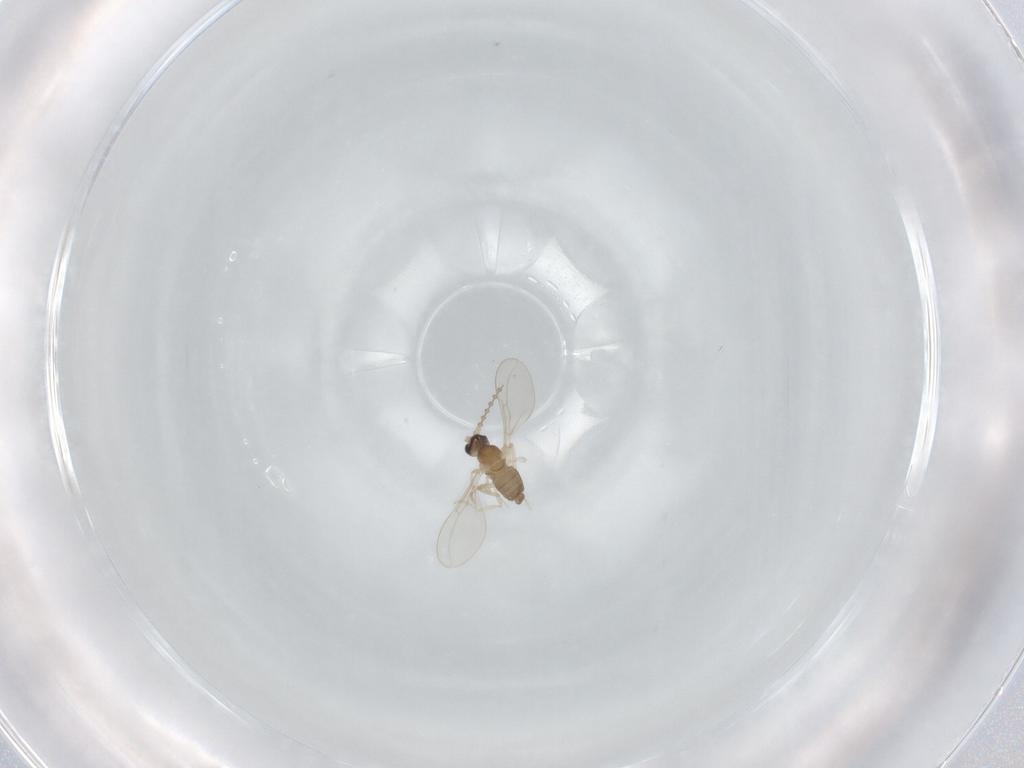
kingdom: Animalia
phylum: Arthropoda
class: Insecta
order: Diptera
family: Cecidomyiidae
